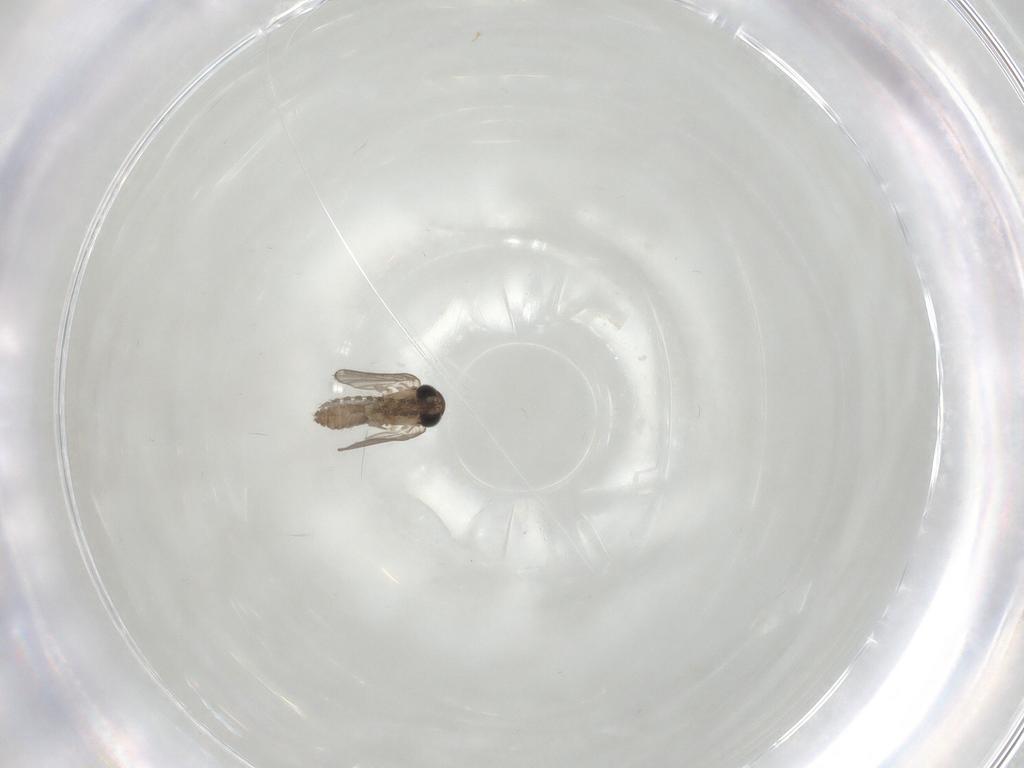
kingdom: Animalia
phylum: Arthropoda
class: Insecta
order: Diptera
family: Psychodidae
